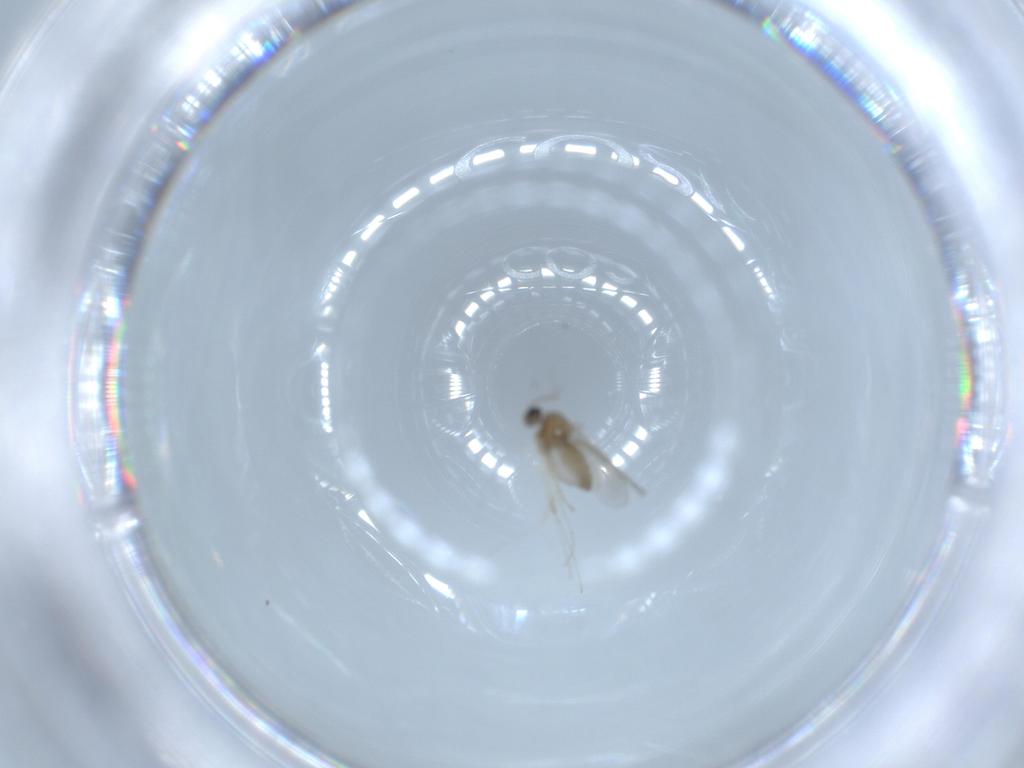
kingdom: Animalia
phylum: Arthropoda
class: Insecta
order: Diptera
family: Dolichopodidae
